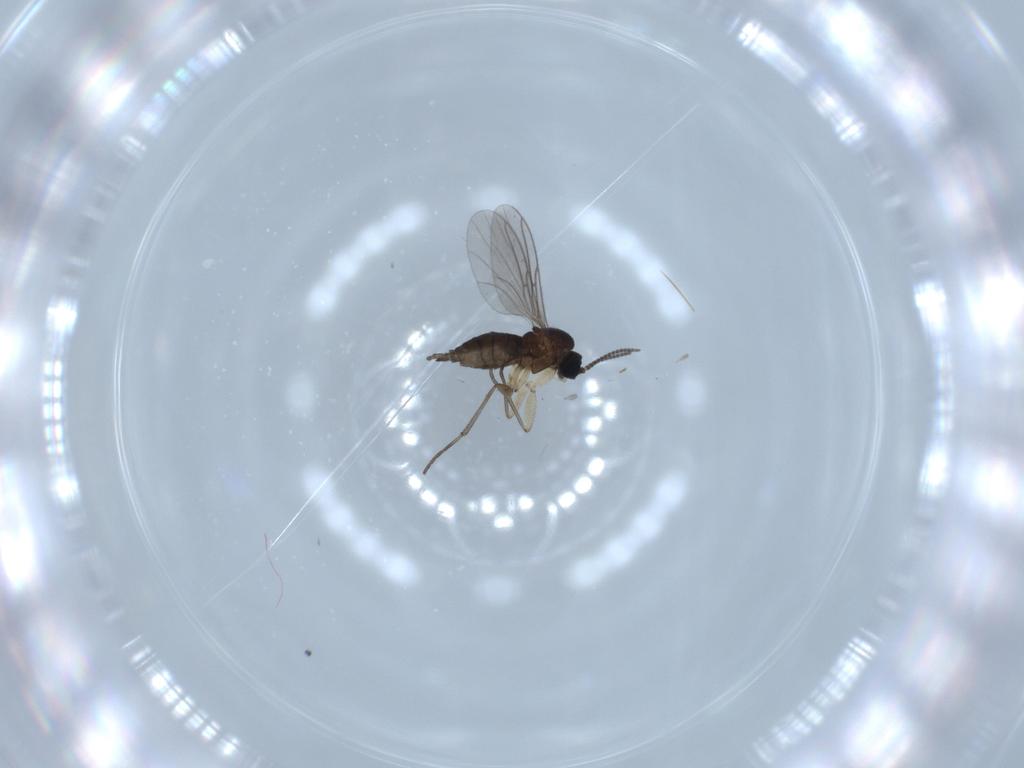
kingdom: Animalia
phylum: Arthropoda
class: Insecta
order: Diptera
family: Sciaridae
